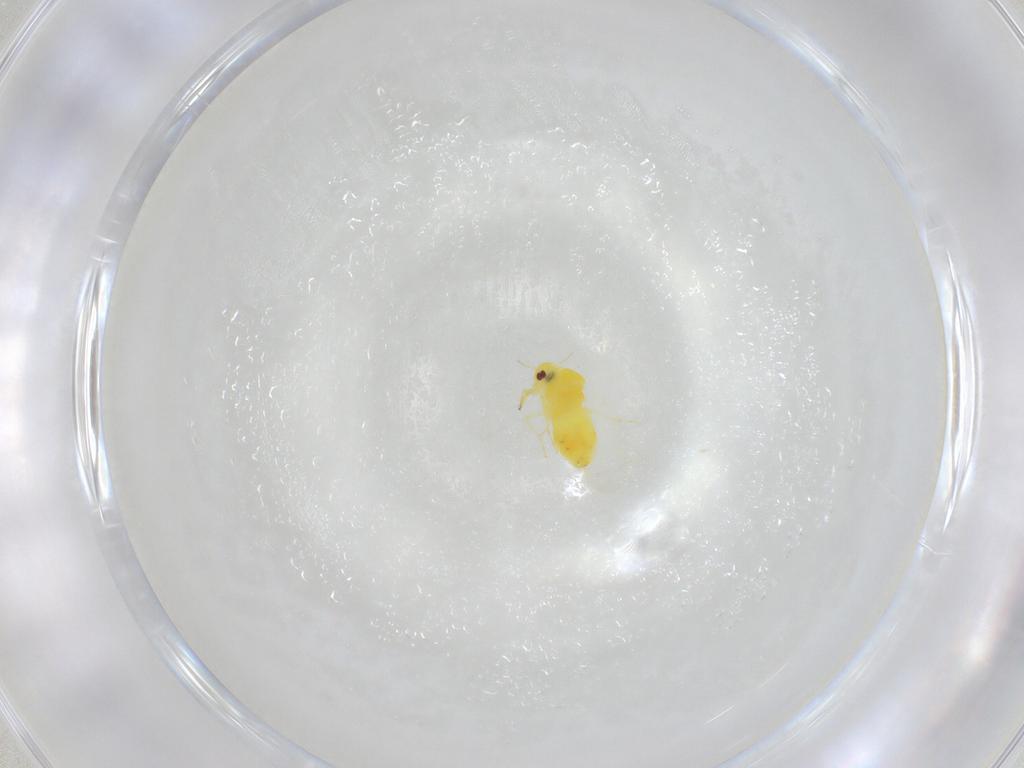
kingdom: Animalia
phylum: Arthropoda
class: Insecta
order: Hemiptera
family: Aleyrodidae
